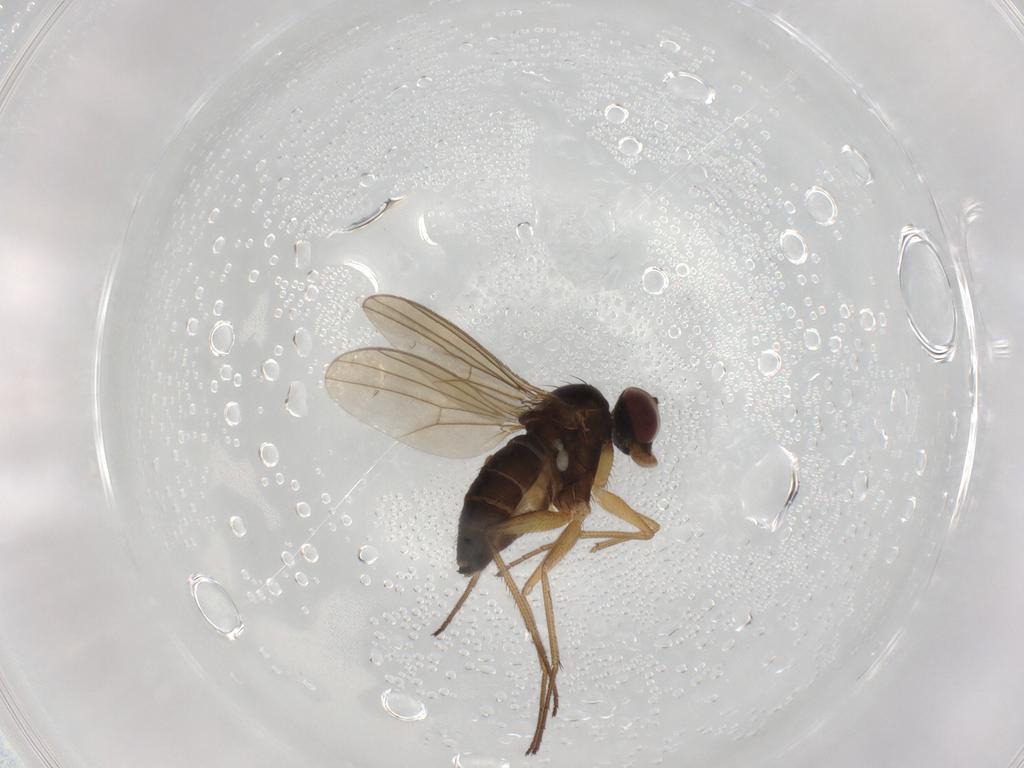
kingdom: Animalia
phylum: Arthropoda
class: Insecta
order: Diptera
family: Dolichopodidae
